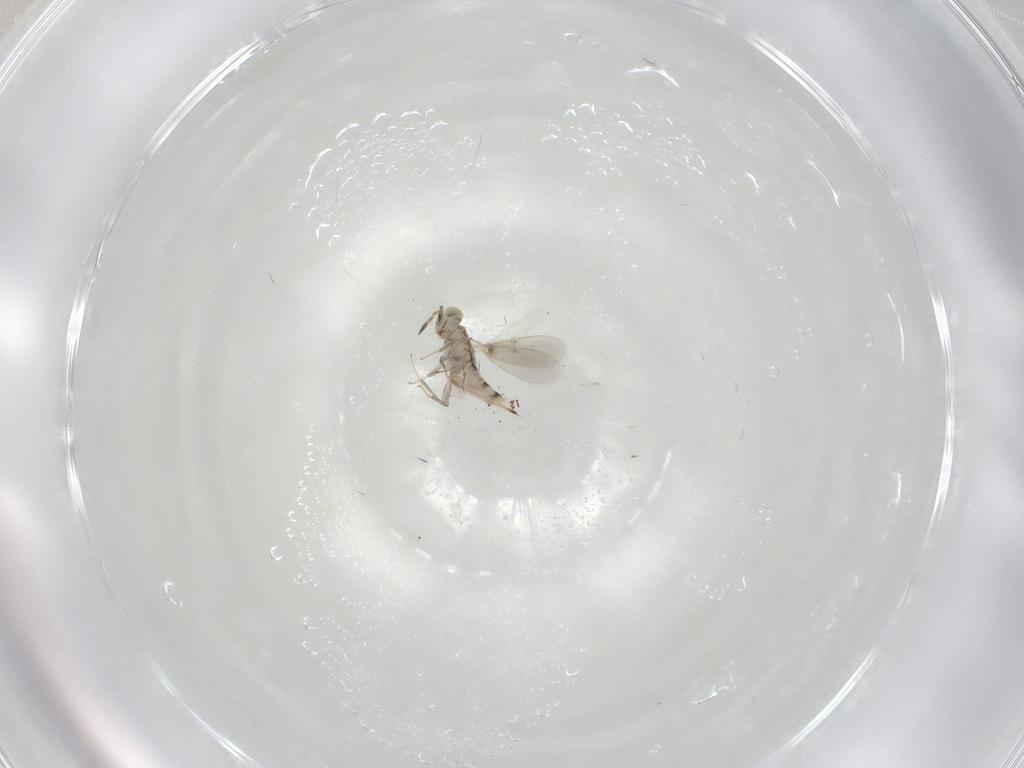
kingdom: Animalia
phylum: Arthropoda
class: Insecta
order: Hymenoptera
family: Aphelinidae
